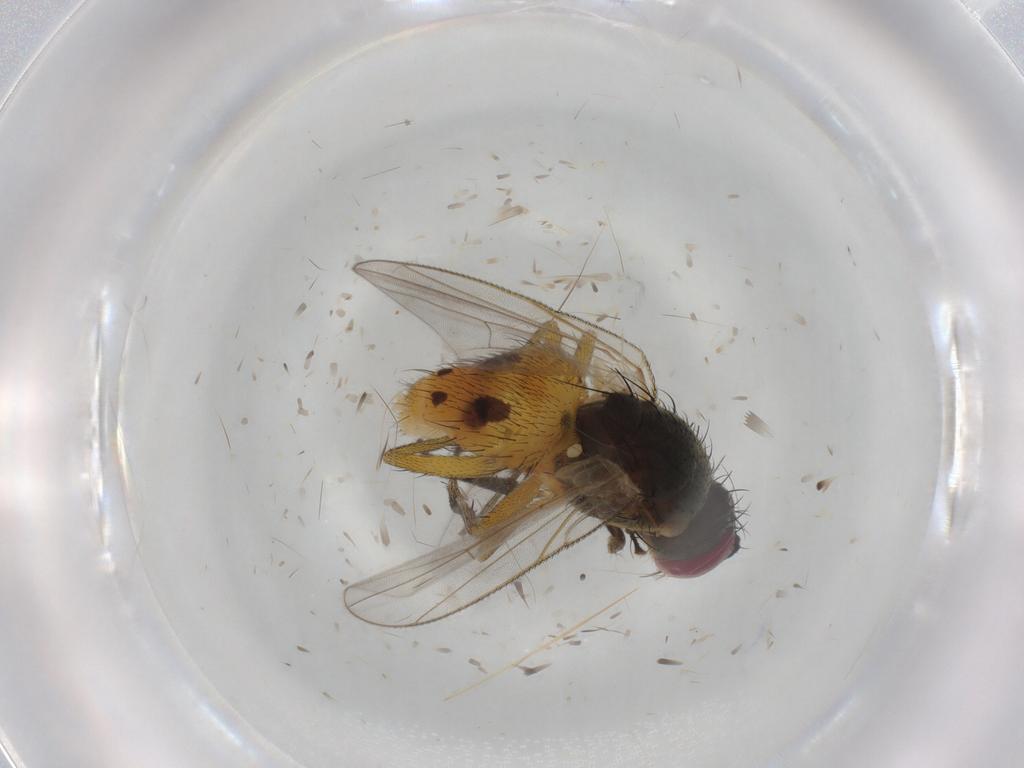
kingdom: Animalia
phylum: Arthropoda
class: Insecta
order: Diptera
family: Muscidae
